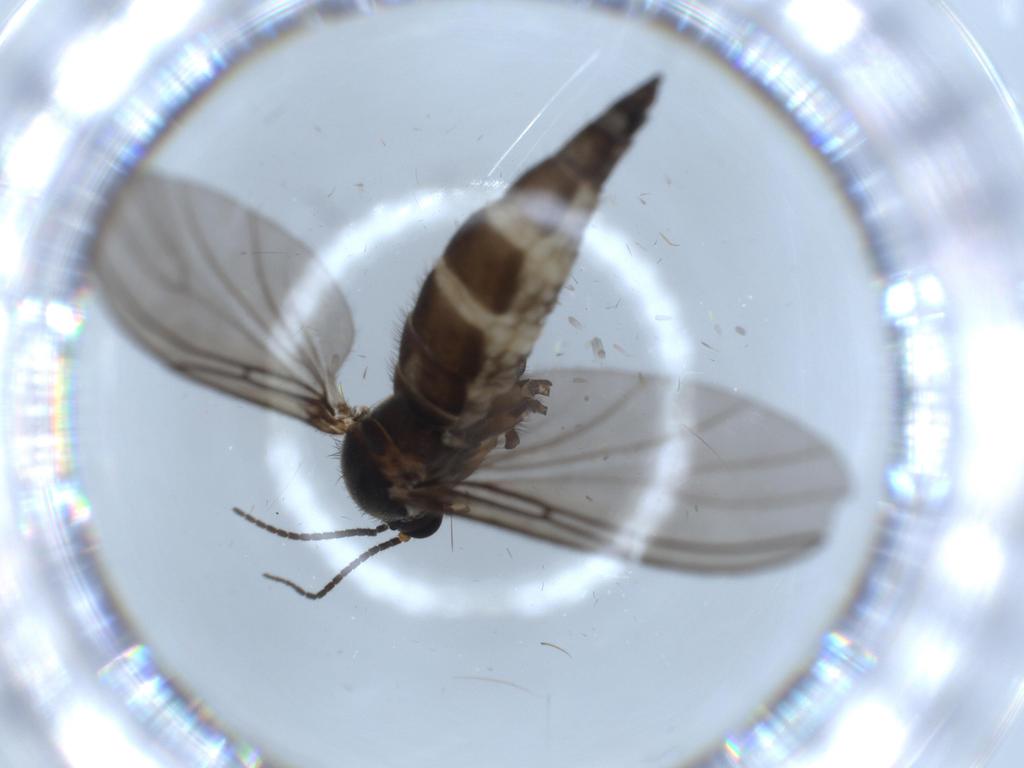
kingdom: Animalia
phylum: Arthropoda
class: Insecta
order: Diptera
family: Sciaridae
